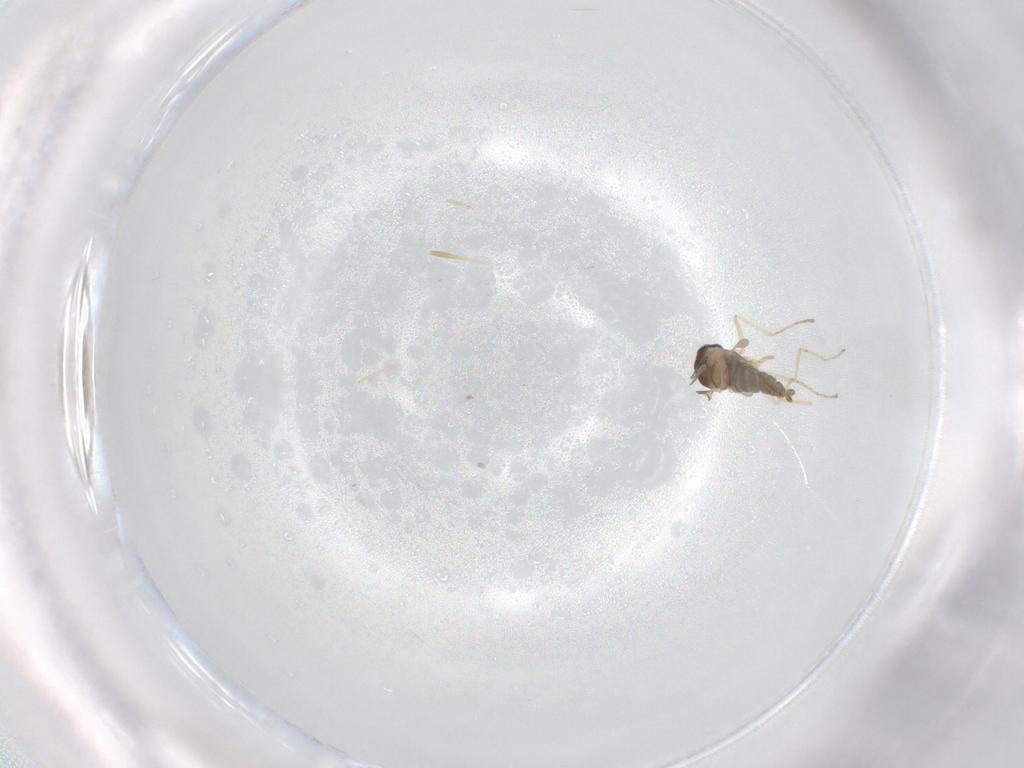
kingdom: Animalia
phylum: Arthropoda
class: Insecta
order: Diptera
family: Cecidomyiidae
